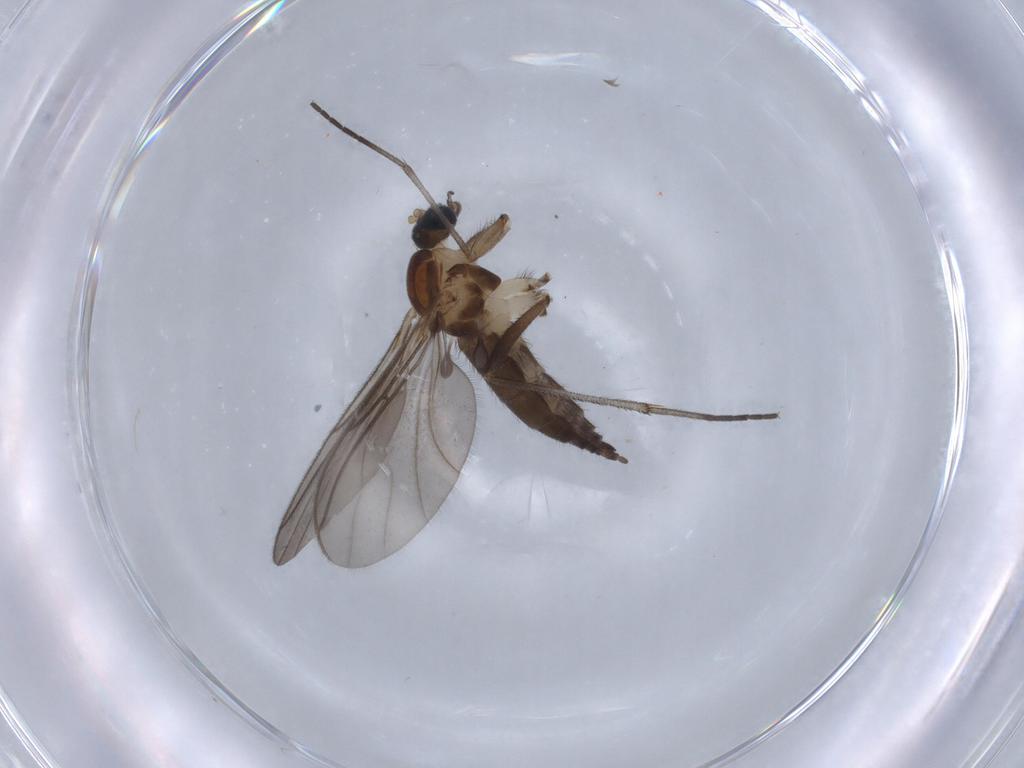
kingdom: Animalia
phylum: Arthropoda
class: Insecta
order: Diptera
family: Sciaridae
